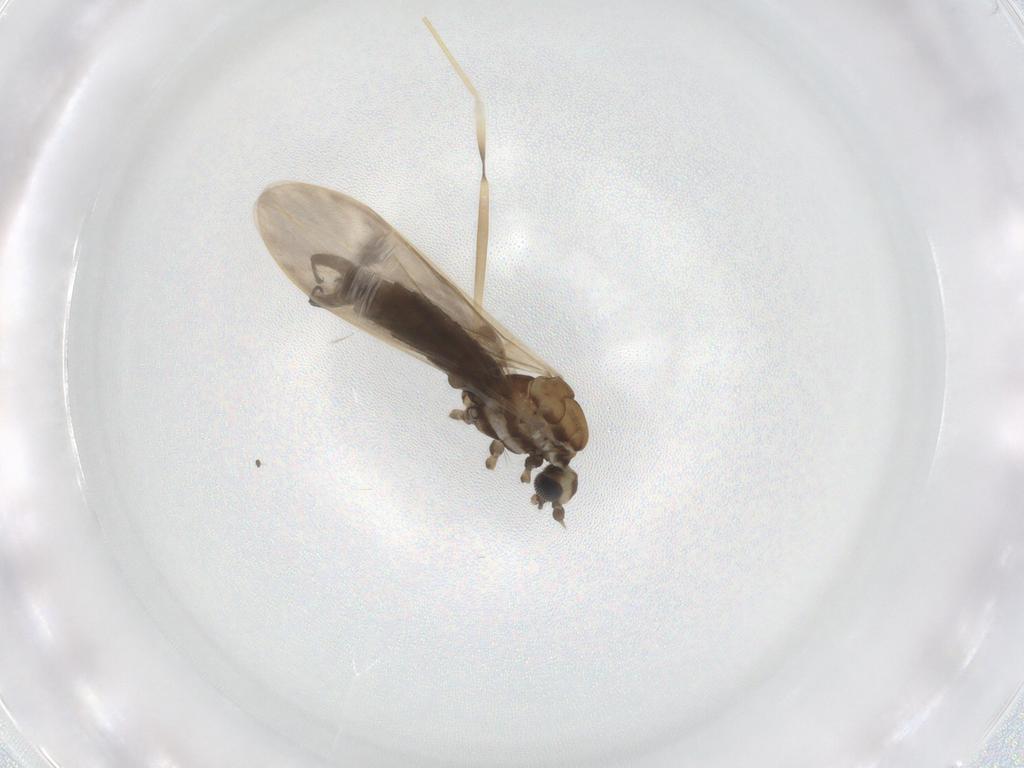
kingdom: Animalia
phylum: Arthropoda
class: Insecta
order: Diptera
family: Limoniidae
